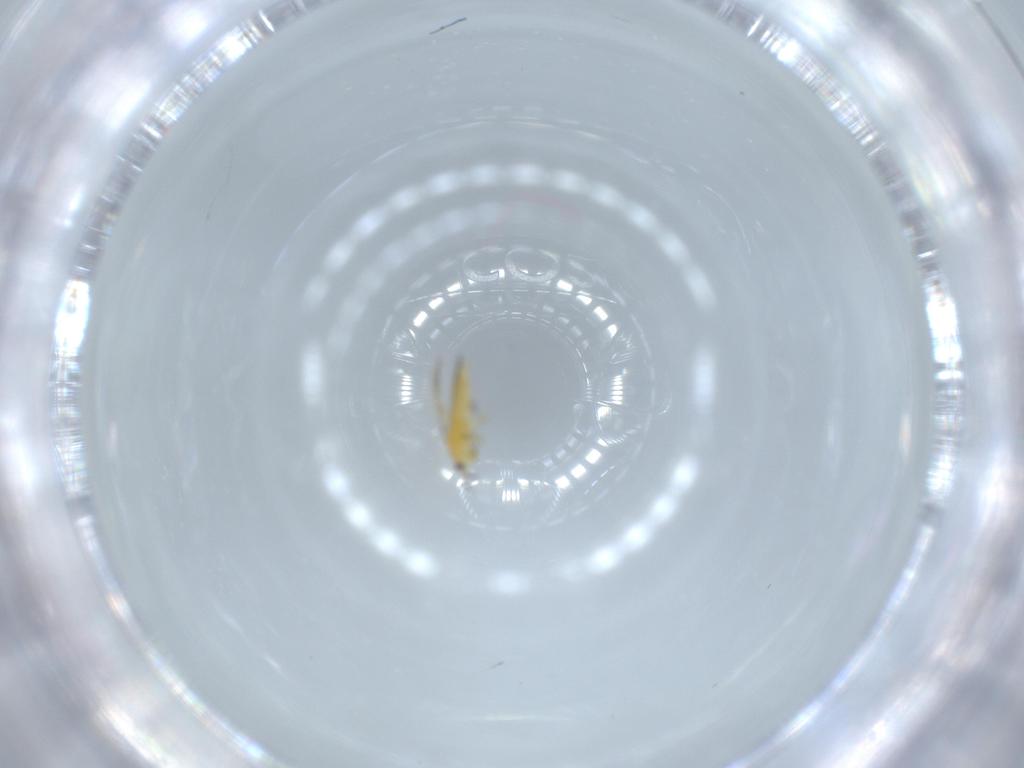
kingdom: Animalia
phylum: Arthropoda
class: Insecta
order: Thysanoptera
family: Thripidae
